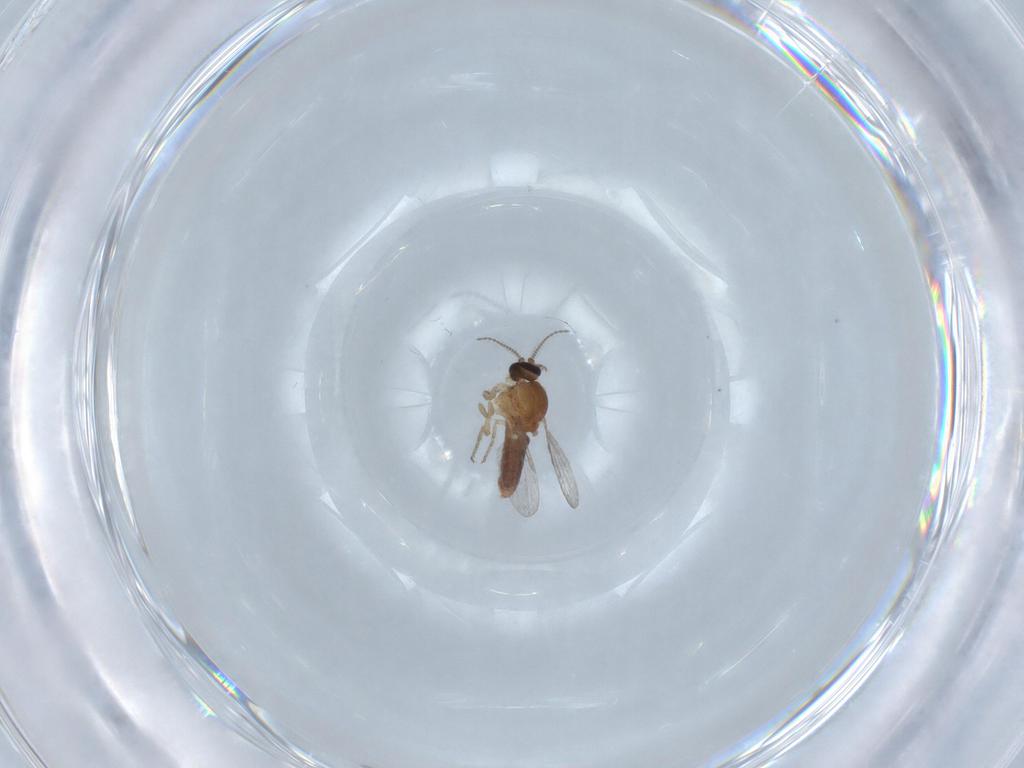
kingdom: Animalia
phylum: Arthropoda
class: Insecta
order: Diptera
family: Ceratopogonidae
